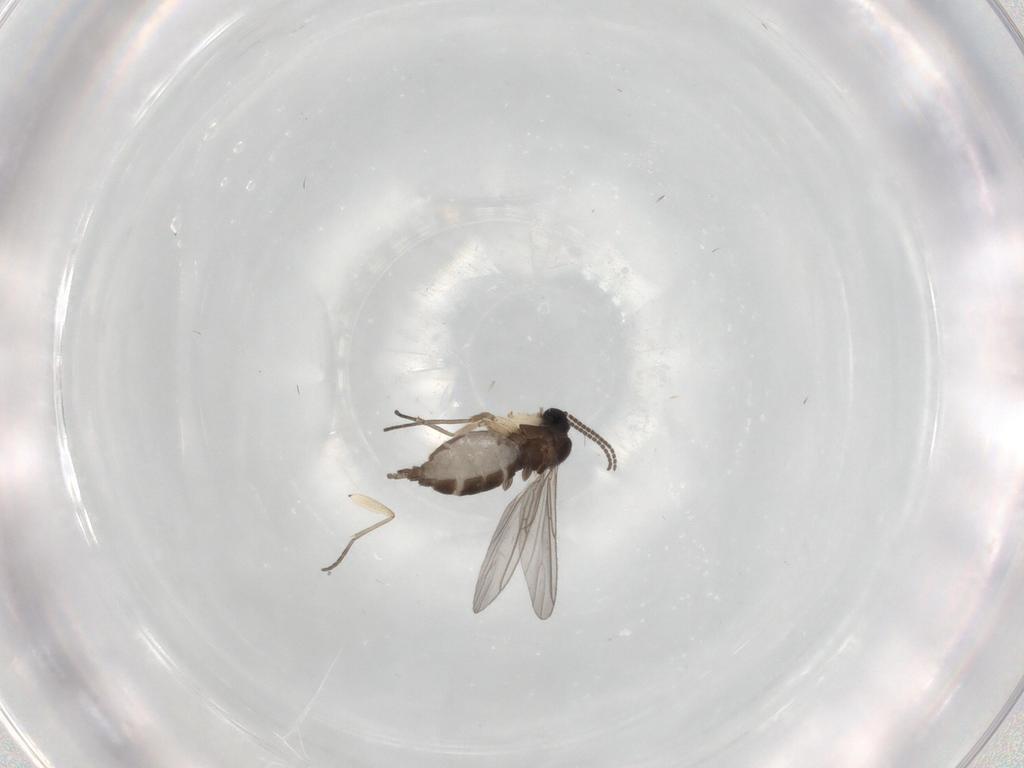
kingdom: Animalia
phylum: Arthropoda
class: Insecta
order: Diptera
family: Sciaridae
